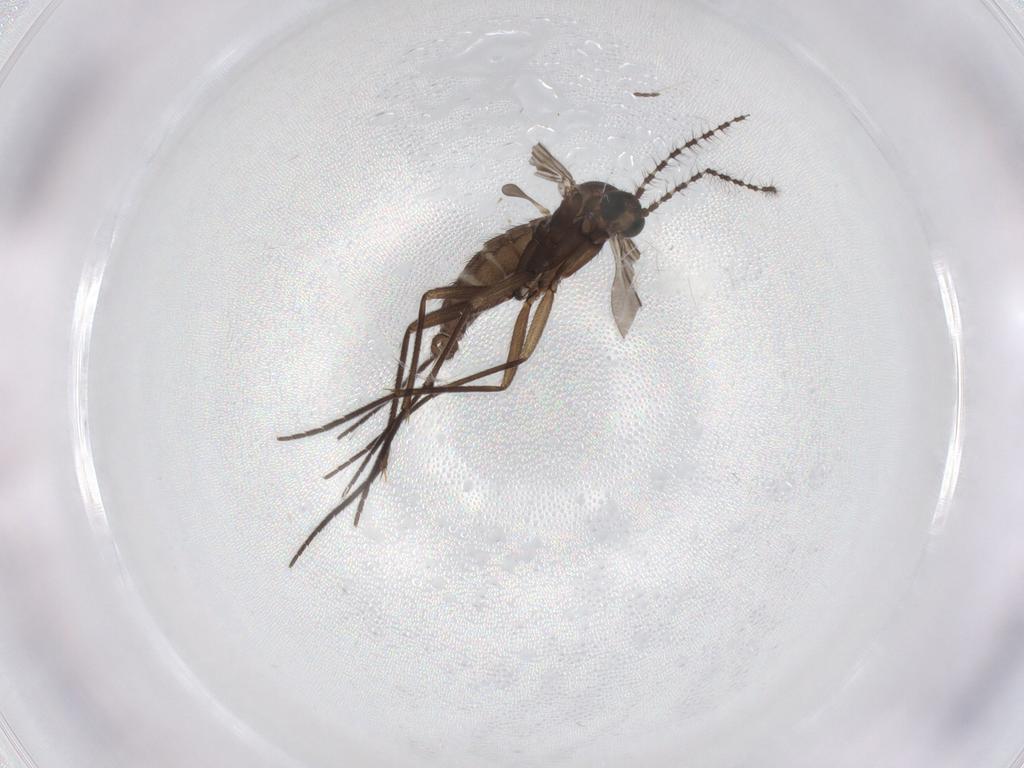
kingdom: Animalia
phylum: Arthropoda
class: Insecta
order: Diptera
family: Sciaridae
